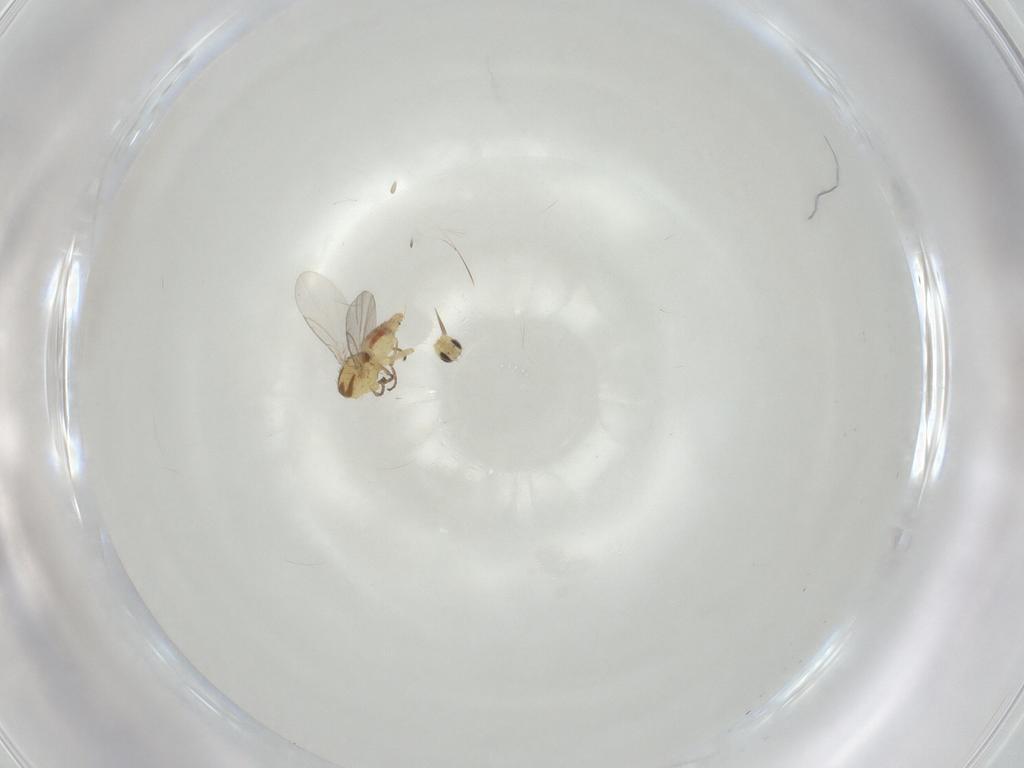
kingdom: Animalia
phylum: Arthropoda
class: Insecta
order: Diptera
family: Agromyzidae
